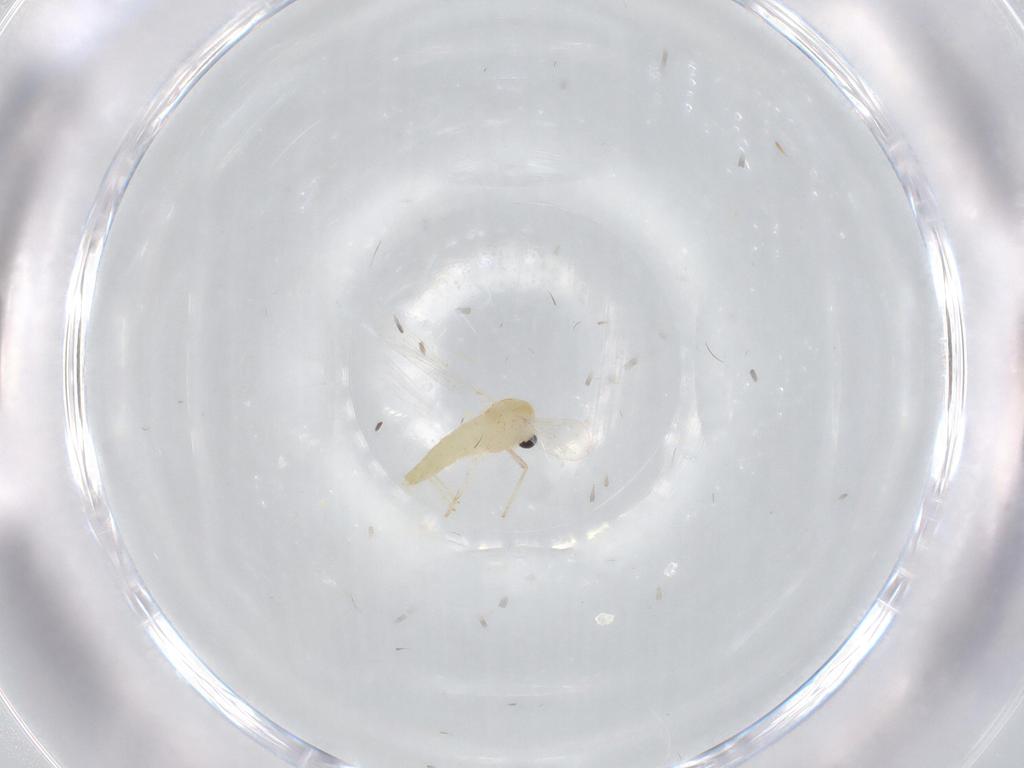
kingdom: Animalia
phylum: Arthropoda
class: Insecta
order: Diptera
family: Chironomidae
